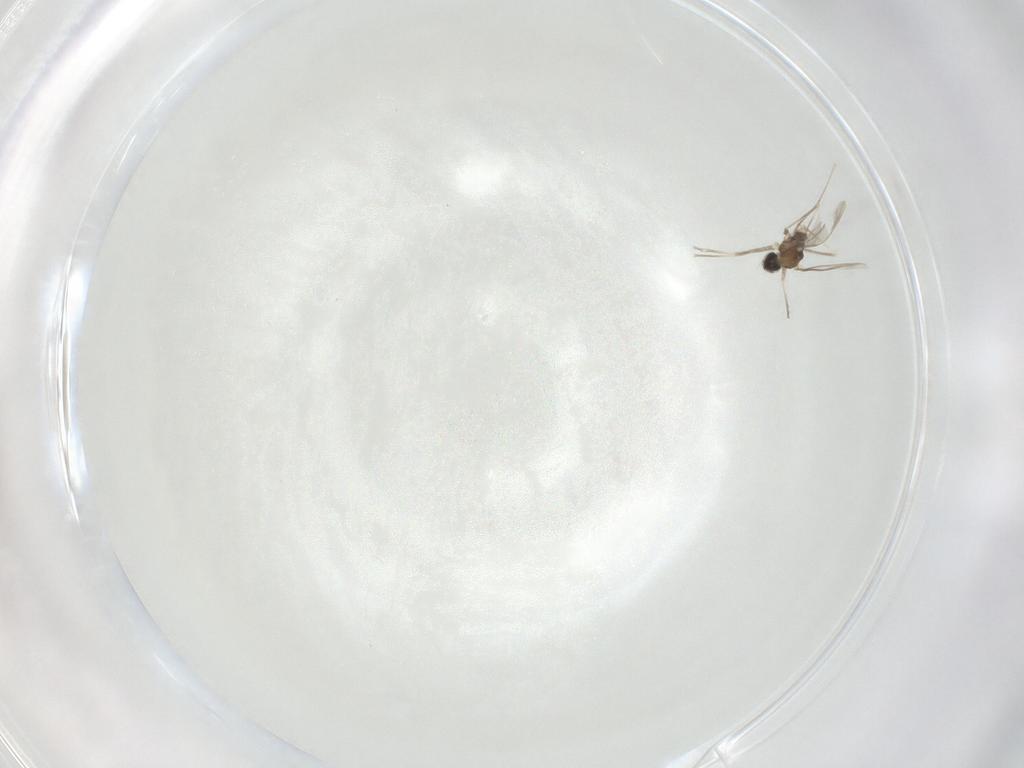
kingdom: Animalia
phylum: Arthropoda
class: Insecta
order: Diptera
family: Cecidomyiidae
